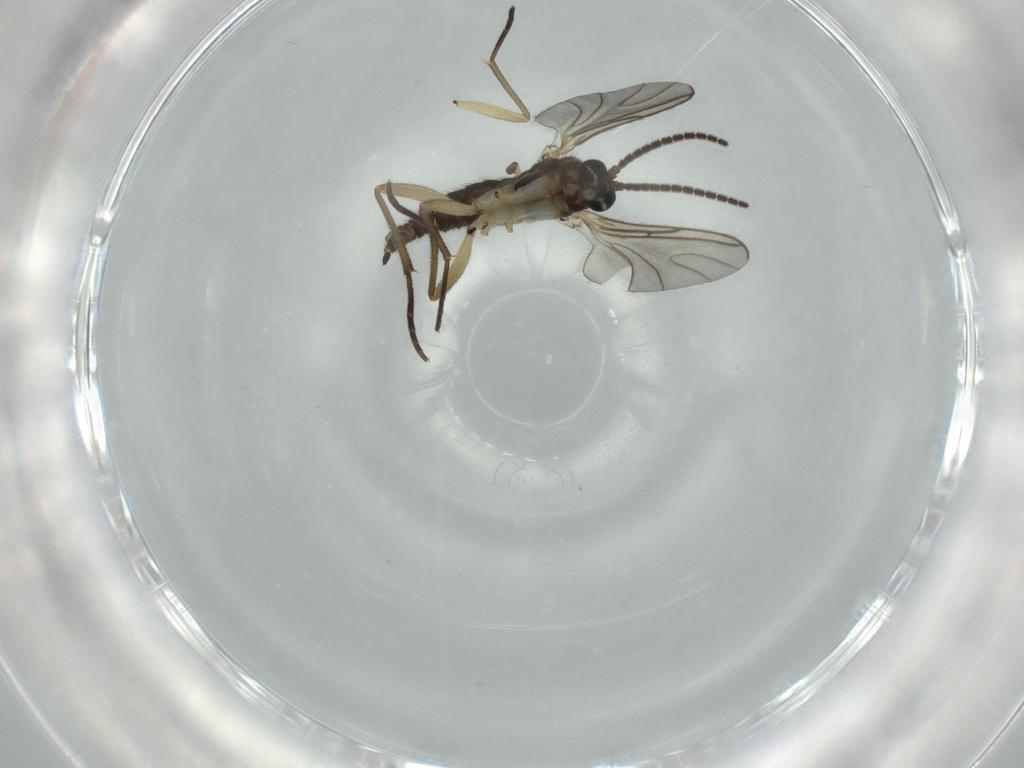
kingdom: Animalia
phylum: Arthropoda
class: Insecta
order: Diptera
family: Sciaridae
